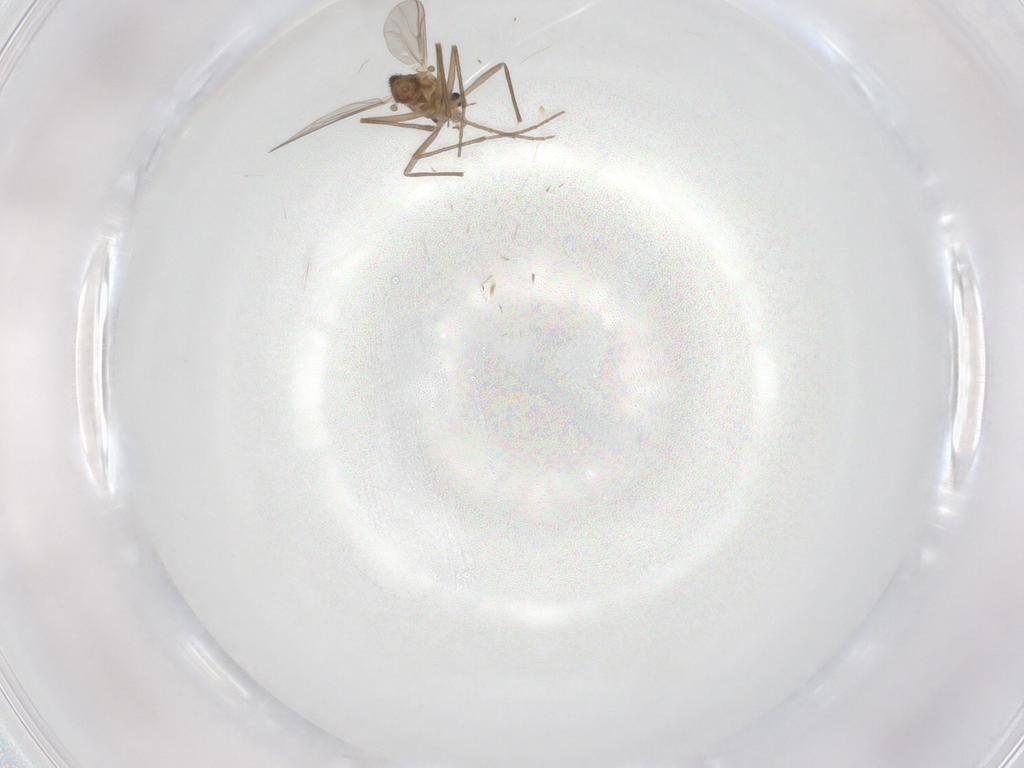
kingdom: Animalia
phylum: Arthropoda
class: Insecta
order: Diptera
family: Chironomidae
